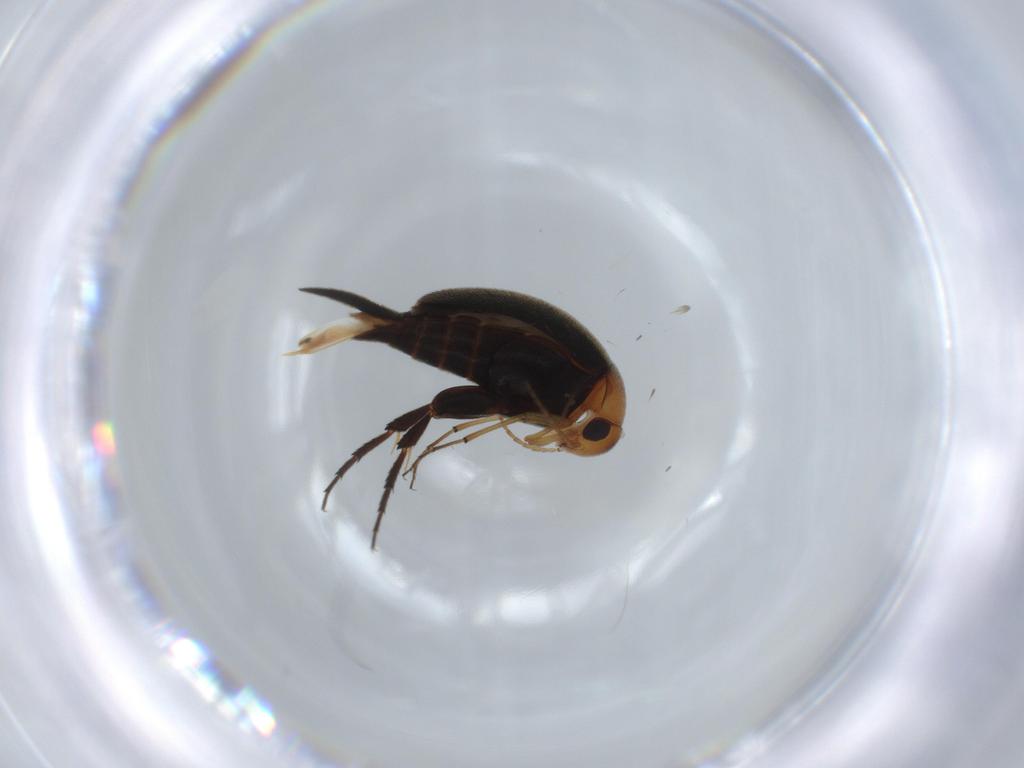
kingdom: Animalia
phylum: Arthropoda
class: Insecta
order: Coleoptera
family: Mordellidae
